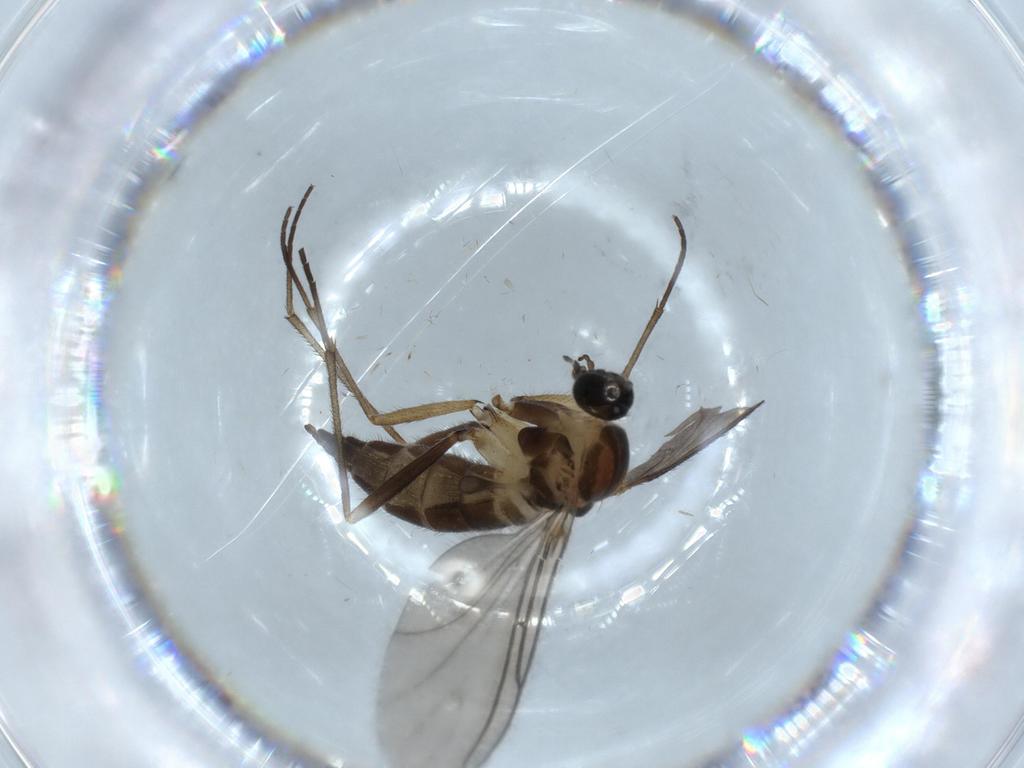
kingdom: Animalia
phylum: Arthropoda
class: Insecta
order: Diptera
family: Sciaridae
